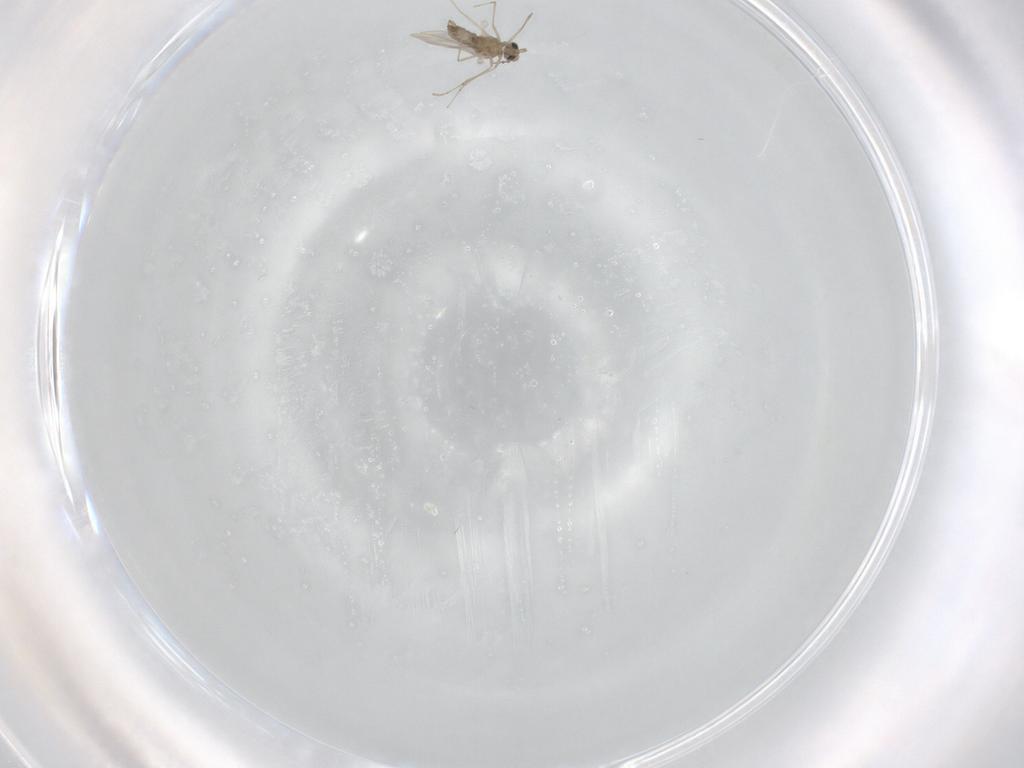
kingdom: Animalia
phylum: Arthropoda
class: Insecta
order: Diptera
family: Cecidomyiidae
